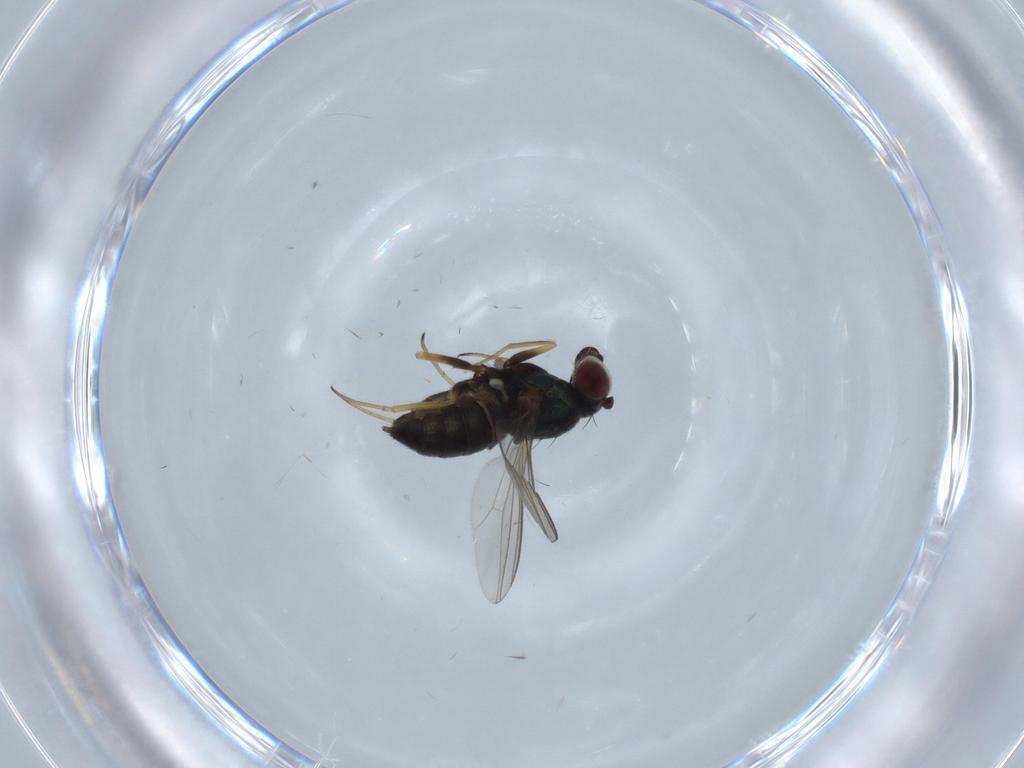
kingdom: Animalia
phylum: Arthropoda
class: Insecta
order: Diptera
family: Dolichopodidae
